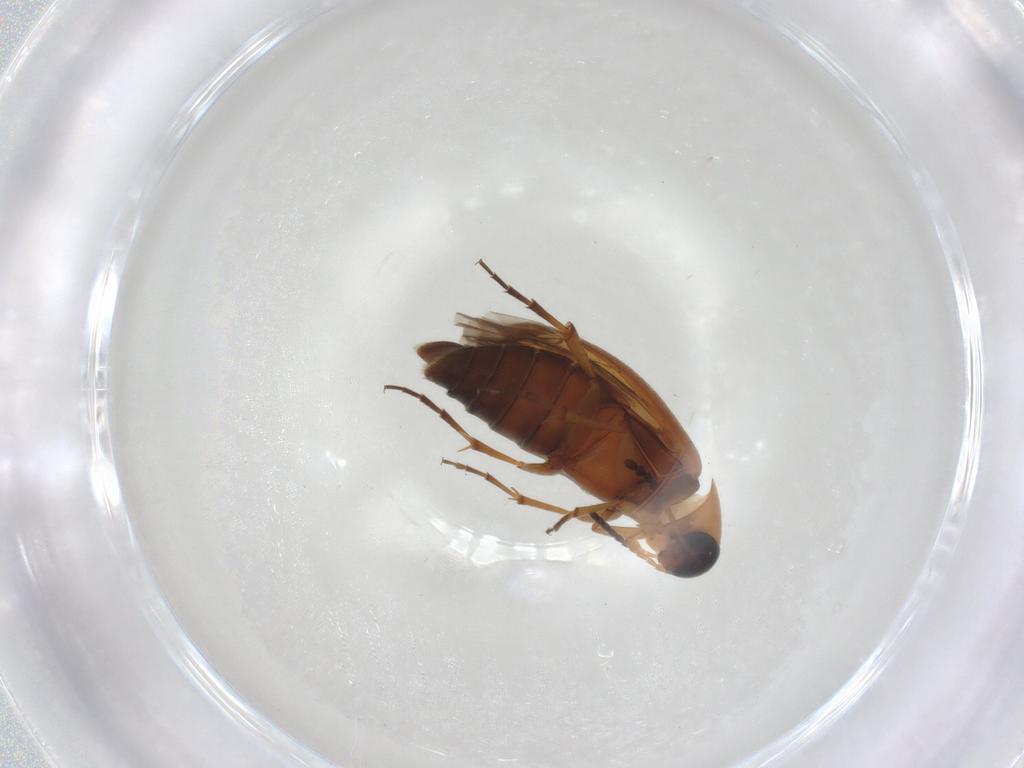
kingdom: Animalia
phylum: Arthropoda
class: Insecta
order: Coleoptera
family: Scraptiidae
